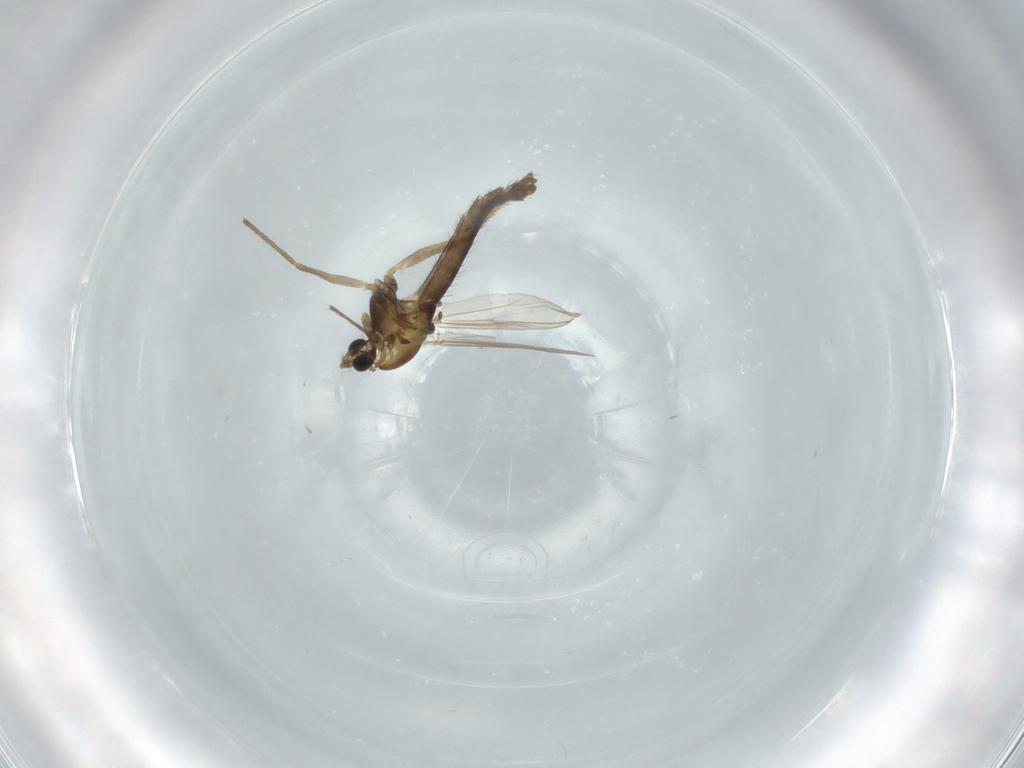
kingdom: Animalia
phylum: Arthropoda
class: Insecta
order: Diptera
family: Chironomidae
